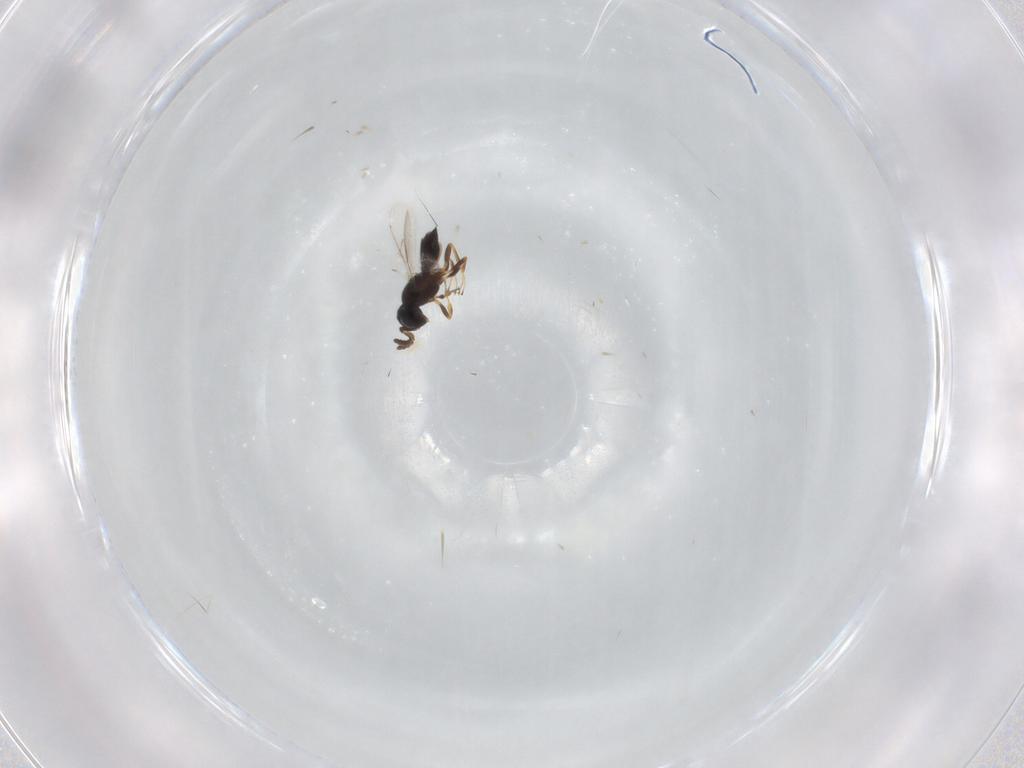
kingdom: Animalia
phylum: Arthropoda
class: Insecta
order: Hymenoptera
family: Scelionidae
